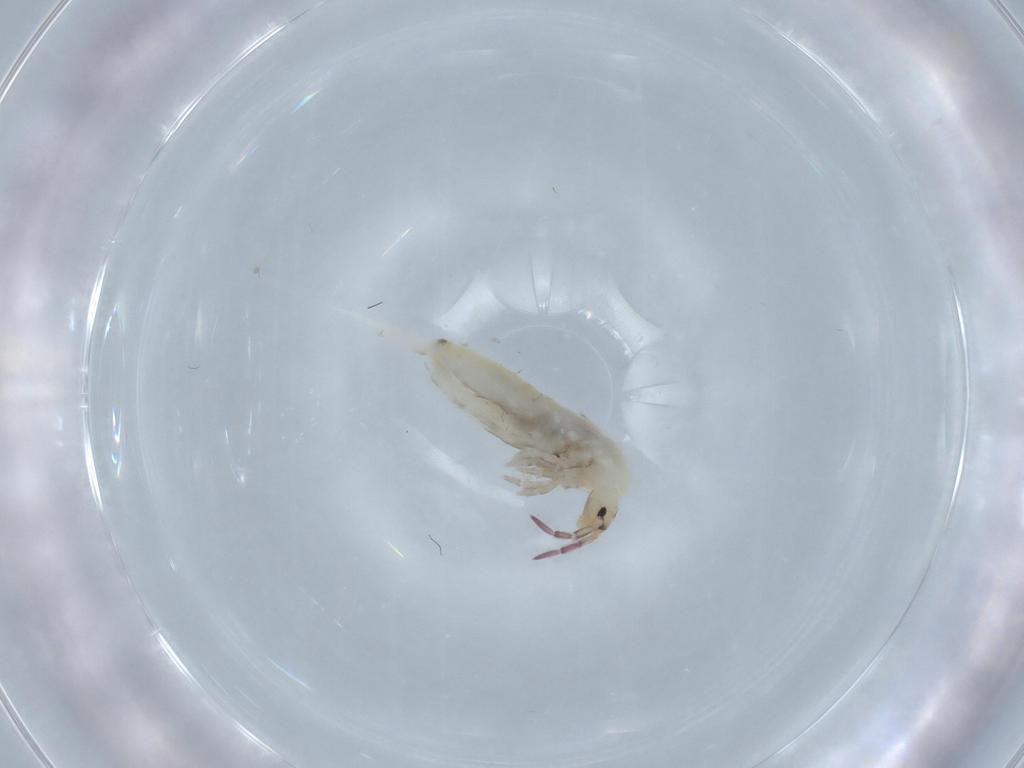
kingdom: Animalia
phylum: Arthropoda
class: Collembola
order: Entomobryomorpha
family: Entomobryidae
